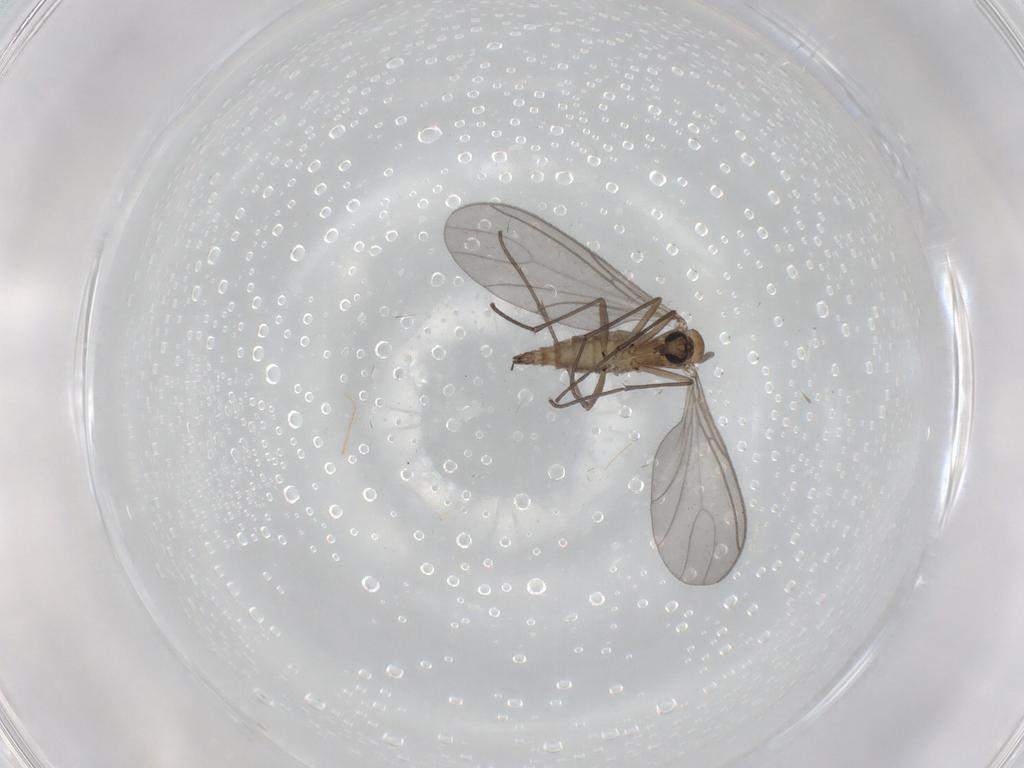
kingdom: Animalia
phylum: Arthropoda
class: Insecta
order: Diptera
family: Sciaridae
